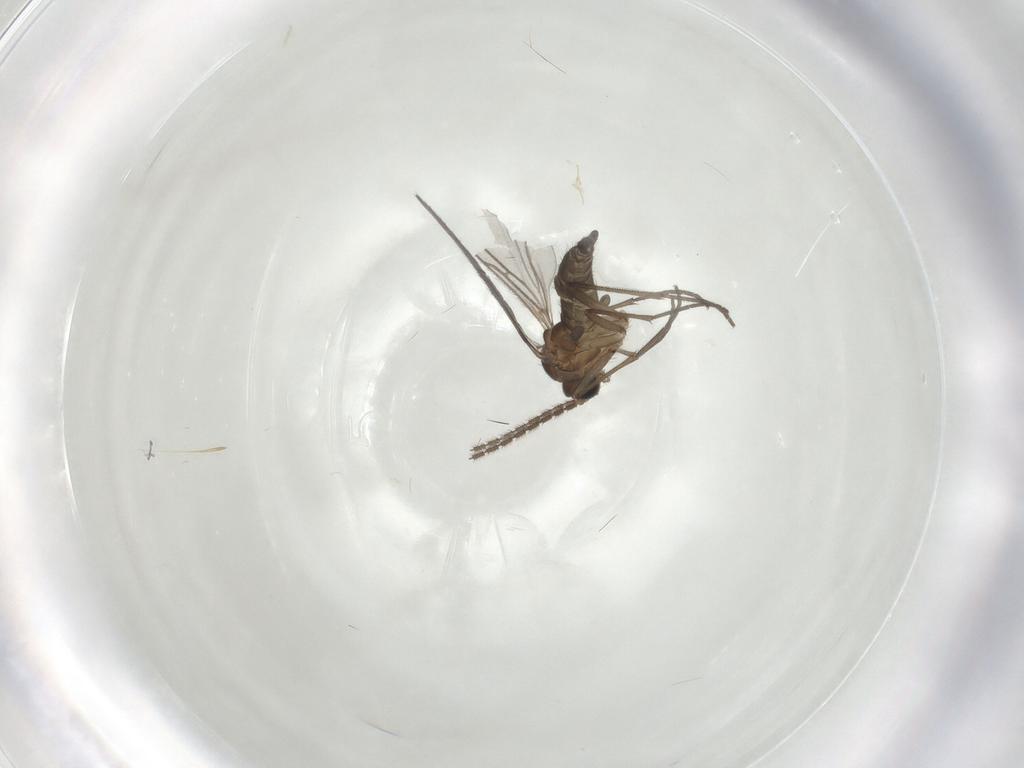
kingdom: Animalia
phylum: Arthropoda
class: Insecta
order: Diptera
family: Sciaridae
